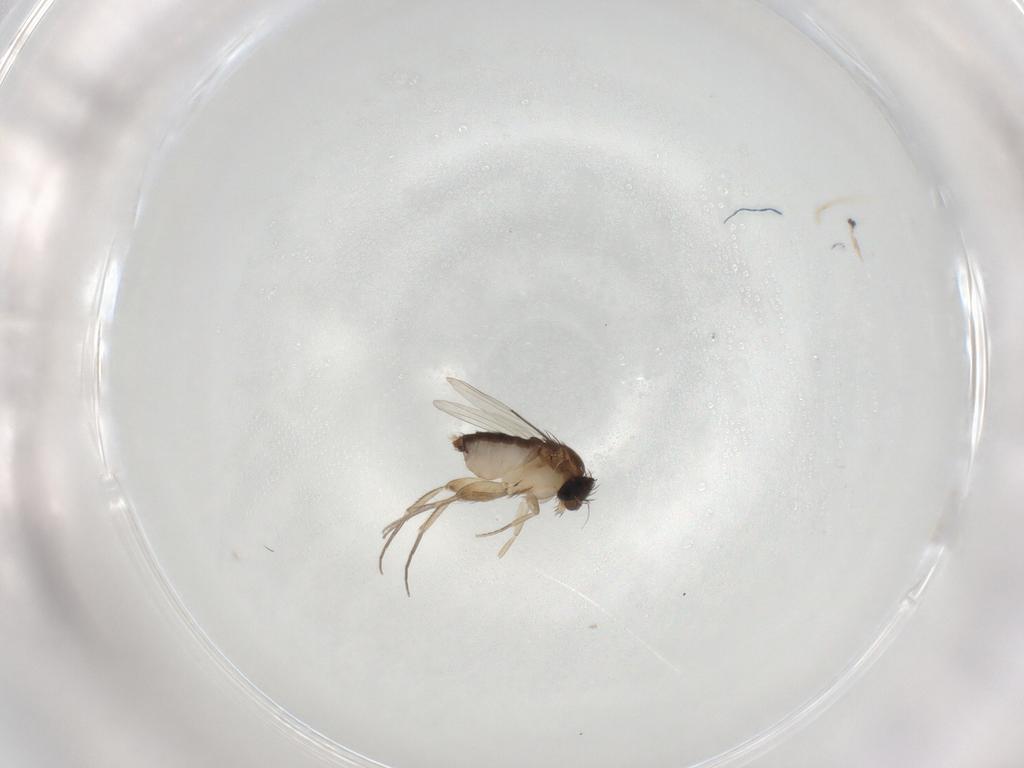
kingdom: Animalia
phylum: Arthropoda
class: Insecta
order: Diptera
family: Phoridae
